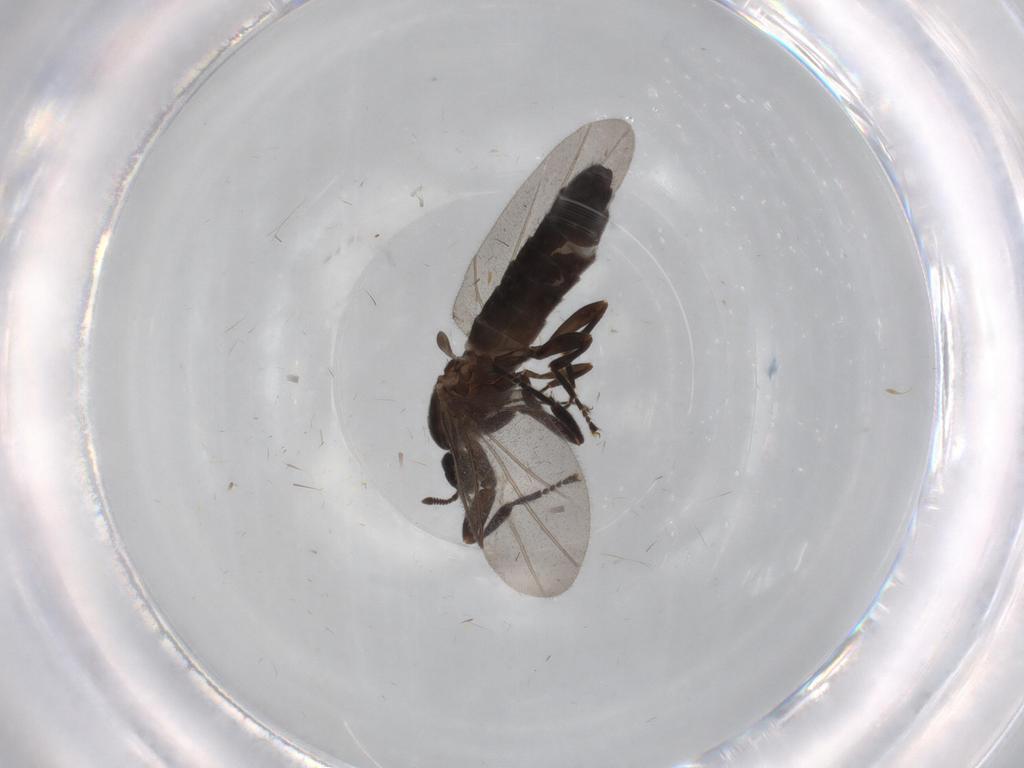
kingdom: Animalia
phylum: Arthropoda
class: Insecta
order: Diptera
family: Scatopsidae
